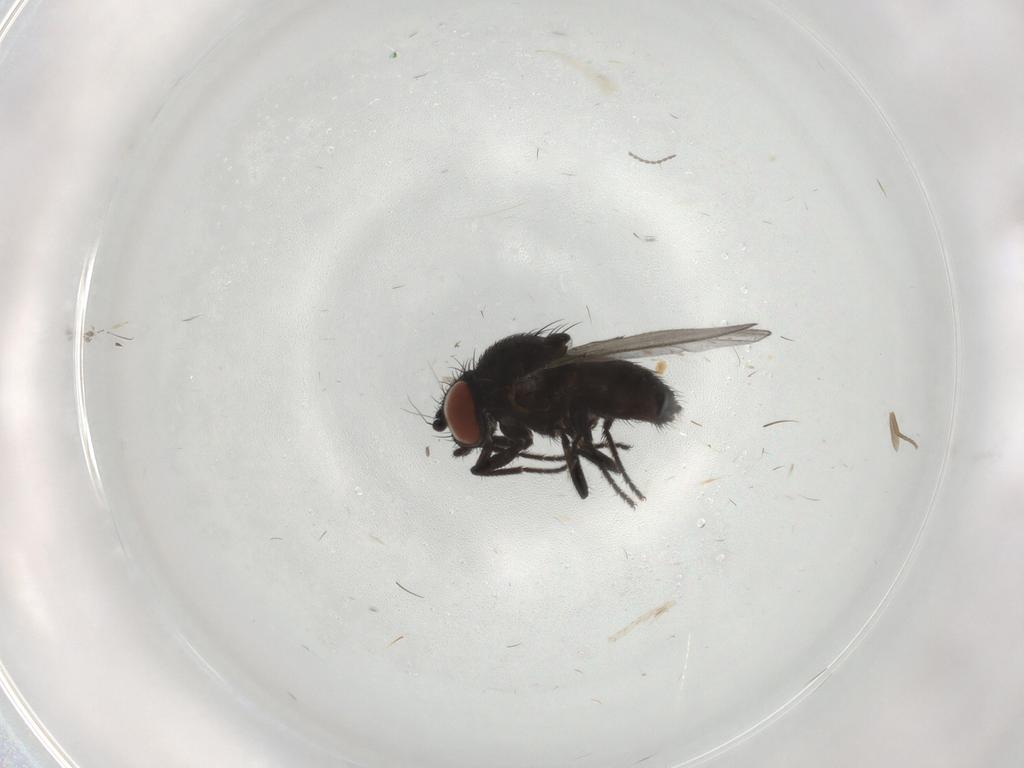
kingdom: Animalia
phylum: Arthropoda
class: Insecta
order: Diptera
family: Milichiidae
